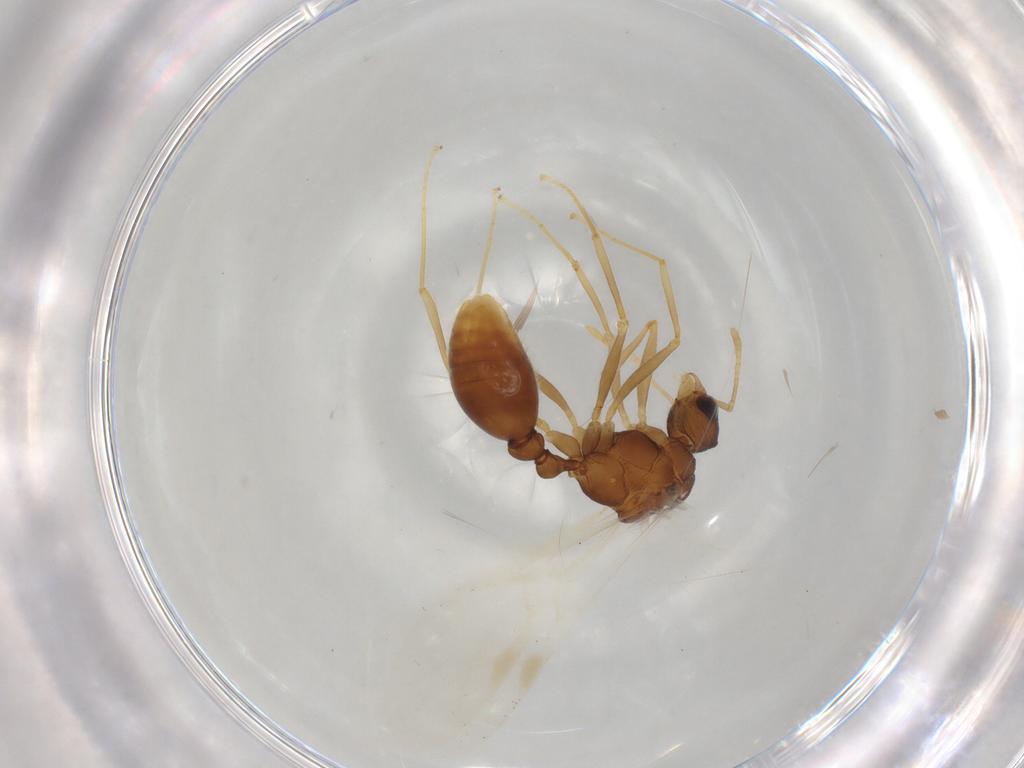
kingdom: Animalia
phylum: Arthropoda
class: Insecta
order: Hymenoptera
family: Formicidae
